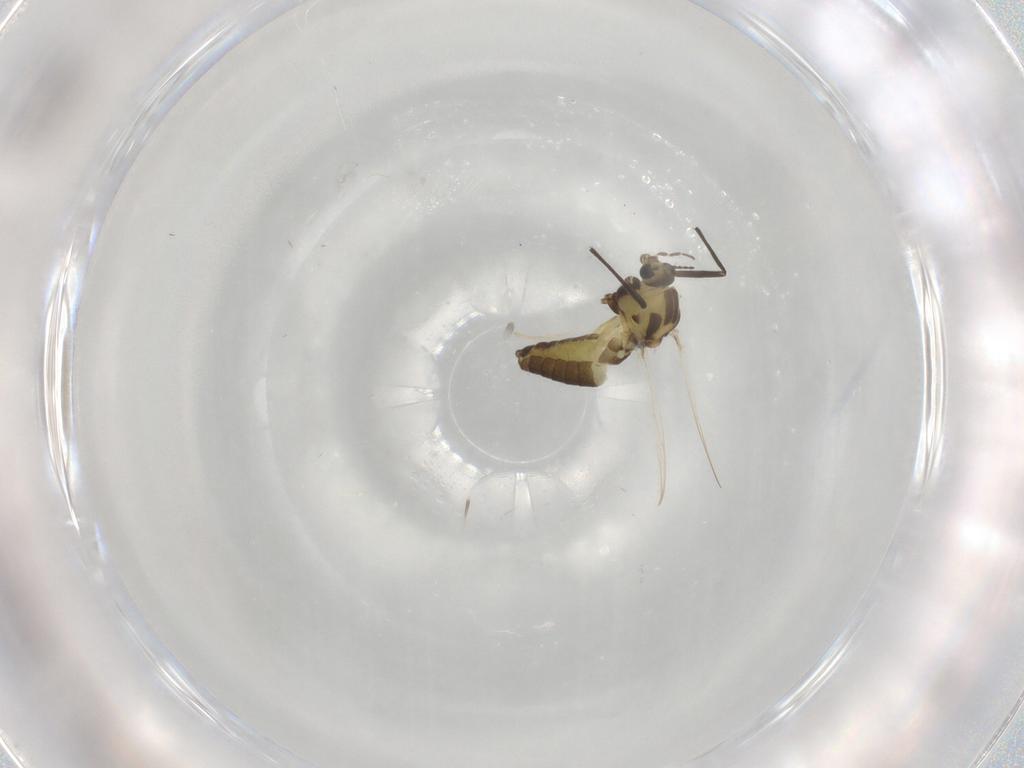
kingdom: Animalia
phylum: Arthropoda
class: Insecta
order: Diptera
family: Chironomidae
